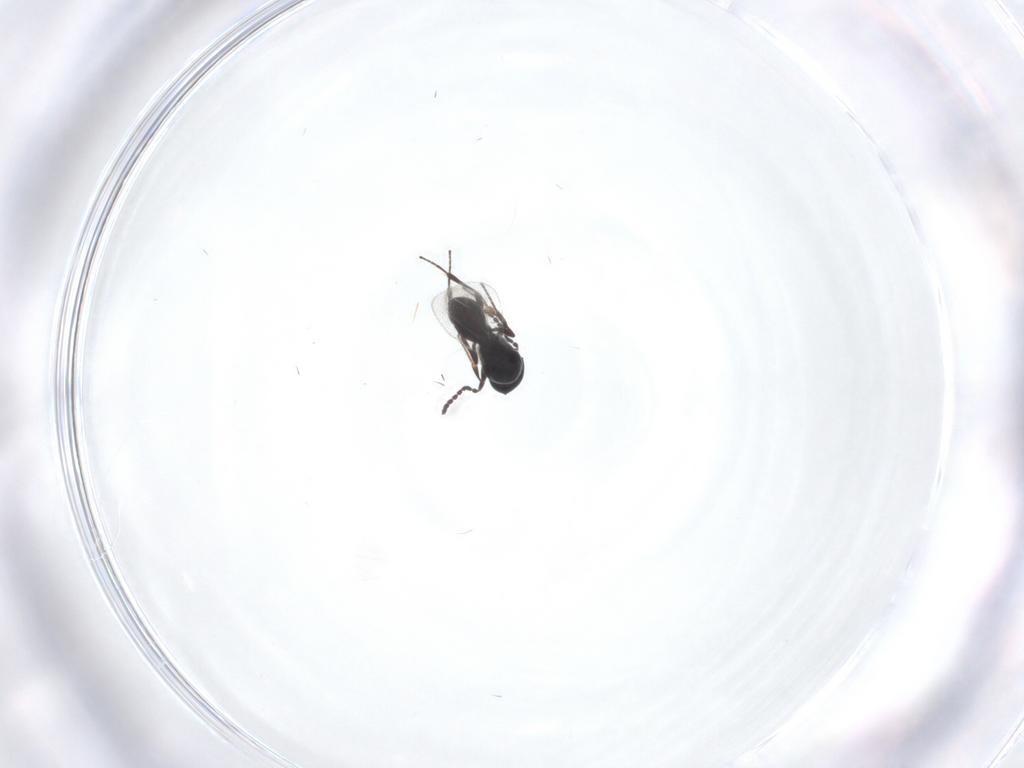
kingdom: Animalia
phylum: Arthropoda
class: Insecta
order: Hymenoptera
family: Platygastridae
